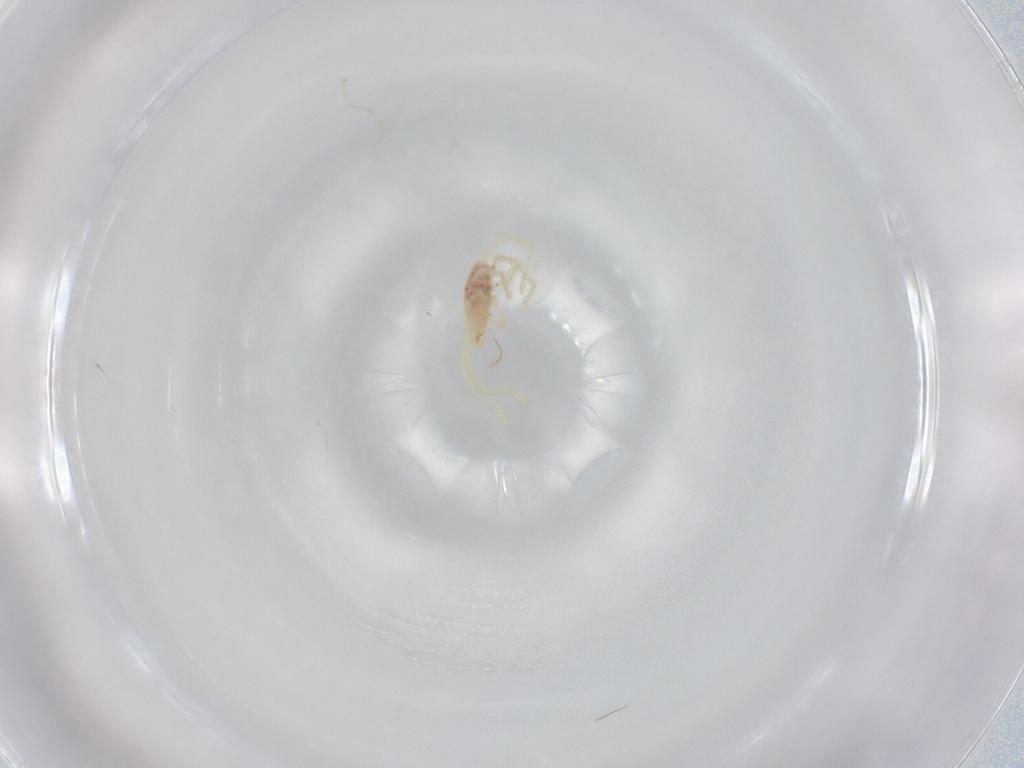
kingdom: Animalia
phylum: Arthropoda
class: Arachnida
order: Trombidiformes
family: Erythraeidae
